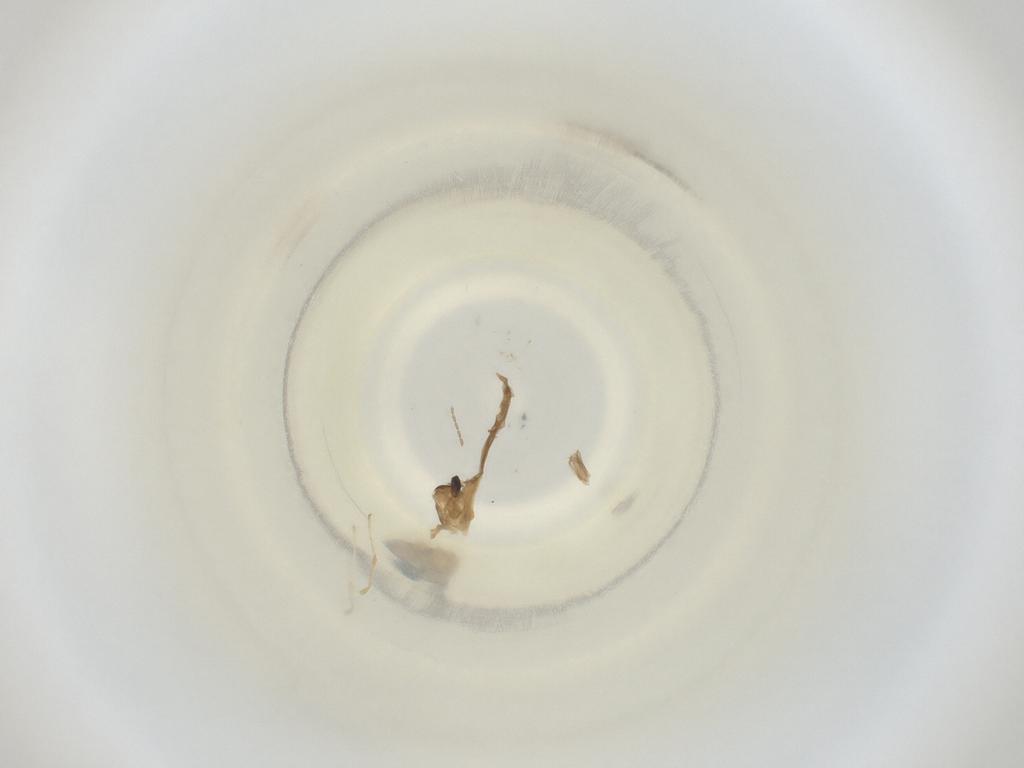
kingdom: Animalia
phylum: Arthropoda
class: Insecta
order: Diptera
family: Cecidomyiidae
